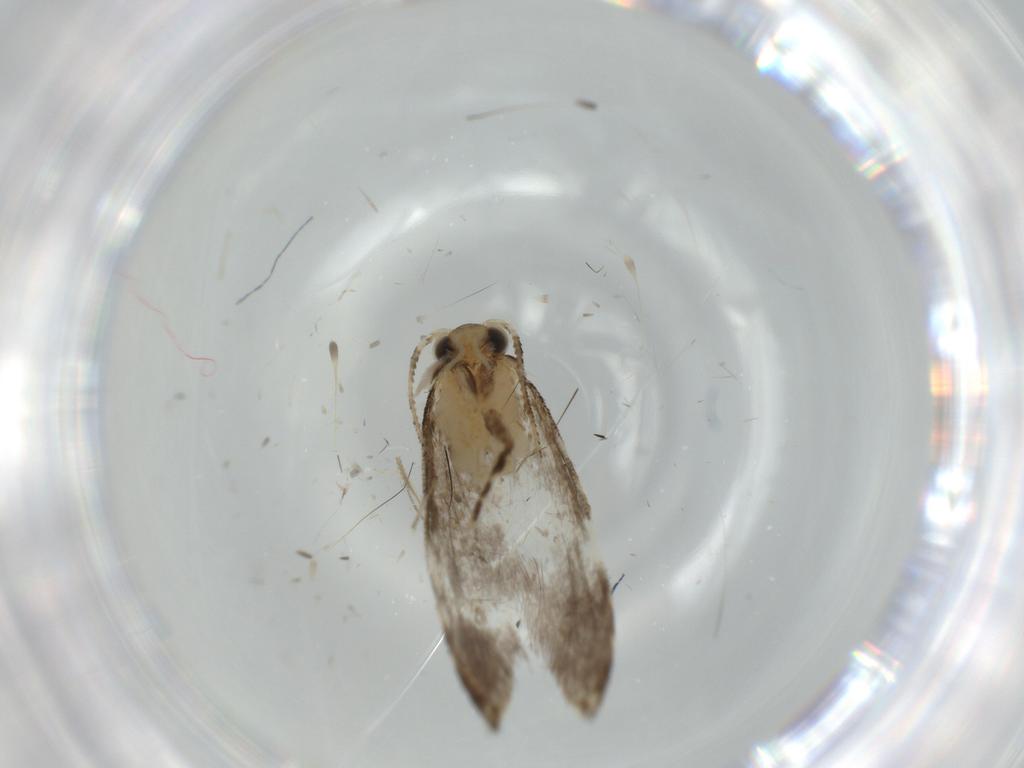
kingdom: Animalia
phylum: Arthropoda
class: Insecta
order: Lepidoptera
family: Tineidae
